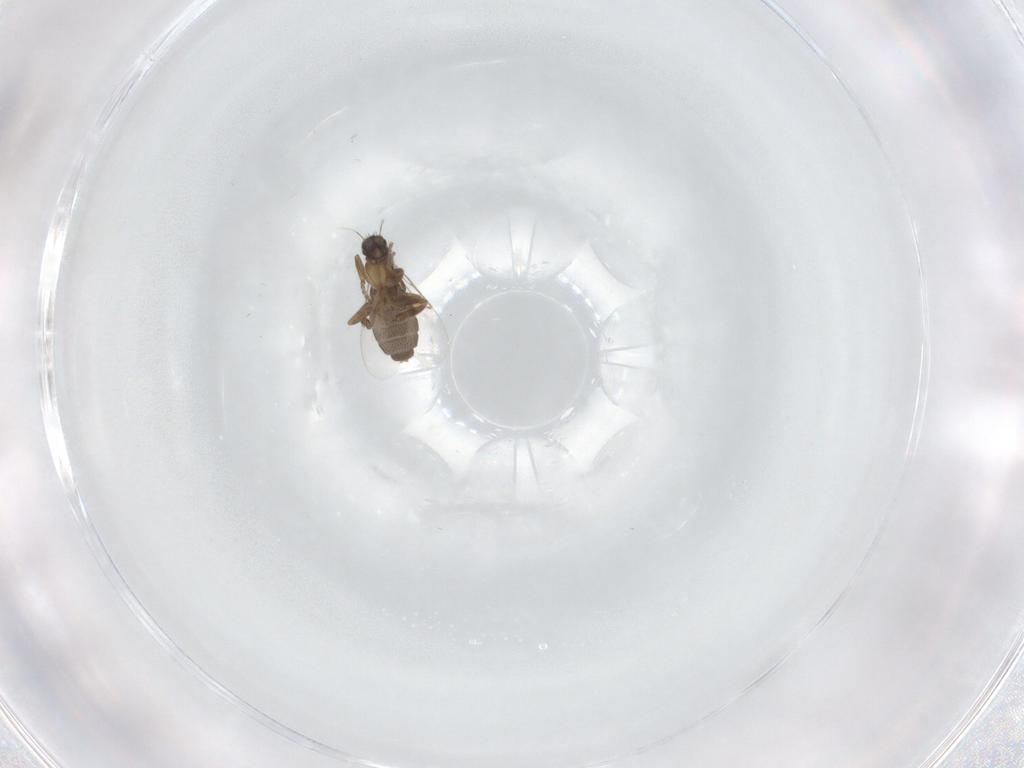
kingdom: Animalia
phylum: Arthropoda
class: Insecta
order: Diptera
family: Phoridae
